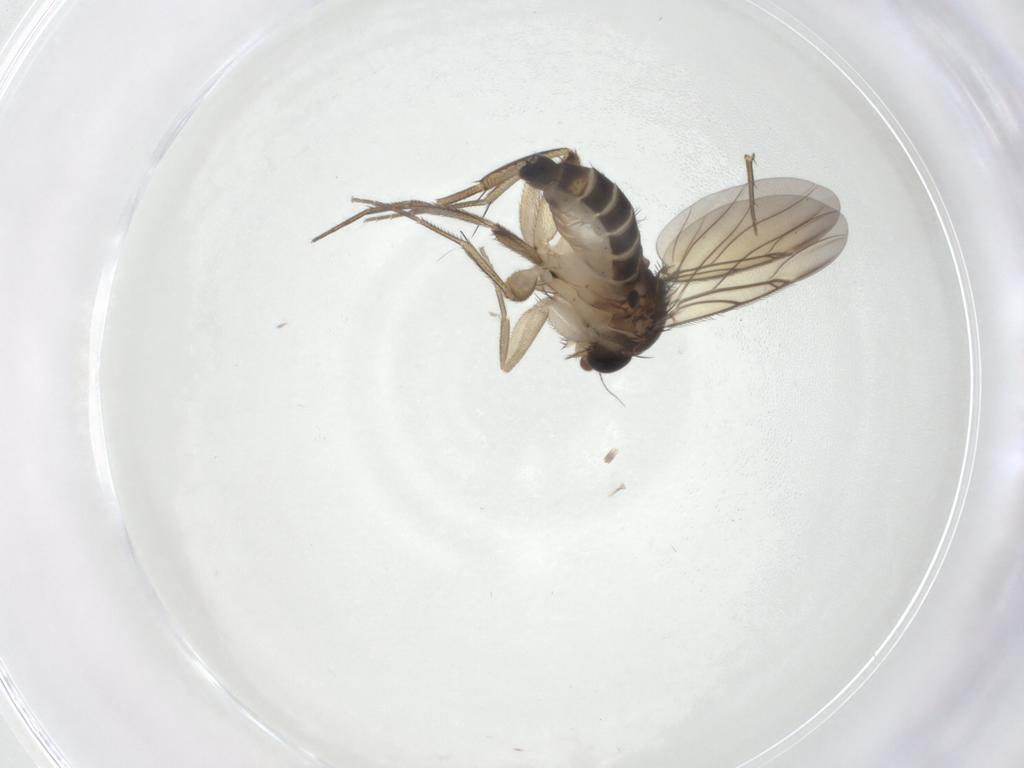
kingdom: Animalia
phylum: Arthropoda
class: Insecta
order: Diptera
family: Phoridae
